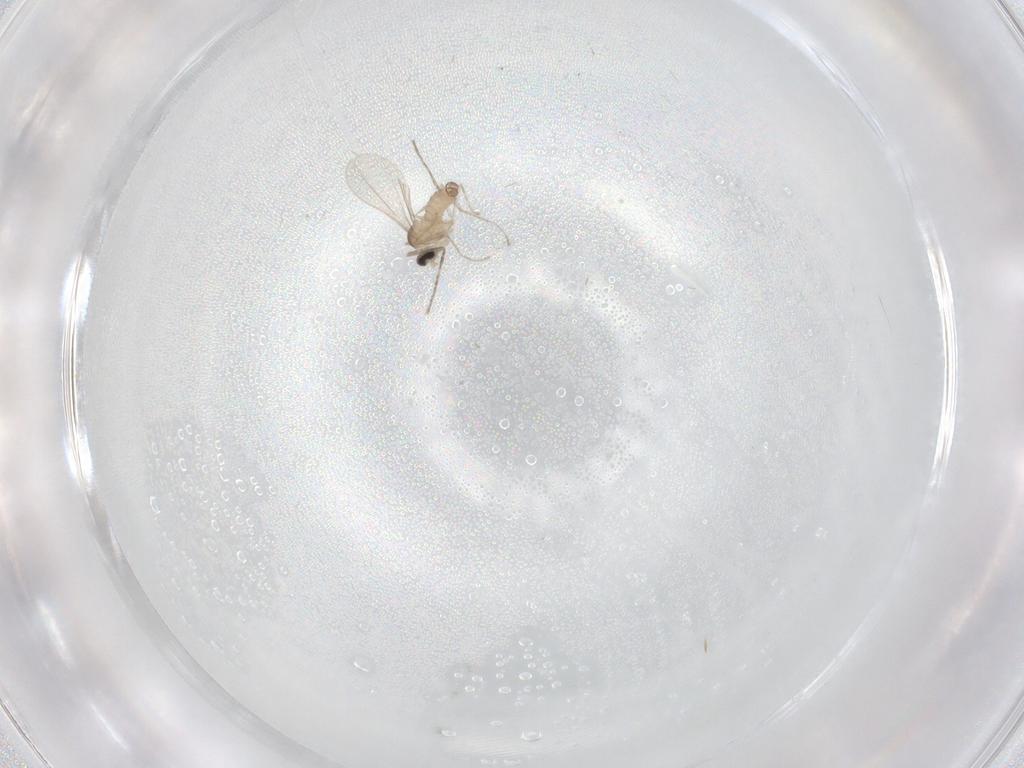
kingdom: Animalia
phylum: Arthropoda
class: Insecta
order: Diptera
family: Cecidomyiidae
